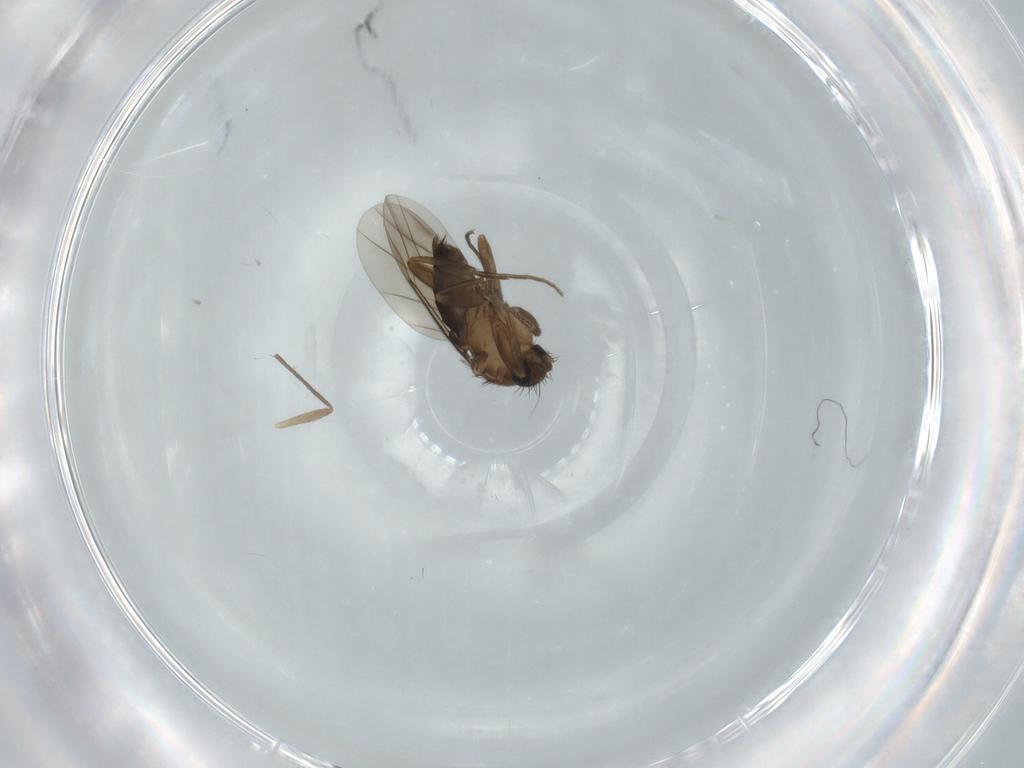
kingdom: Animalia
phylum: Arthropoda
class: Insecta
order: Diptera
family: Phoridae
